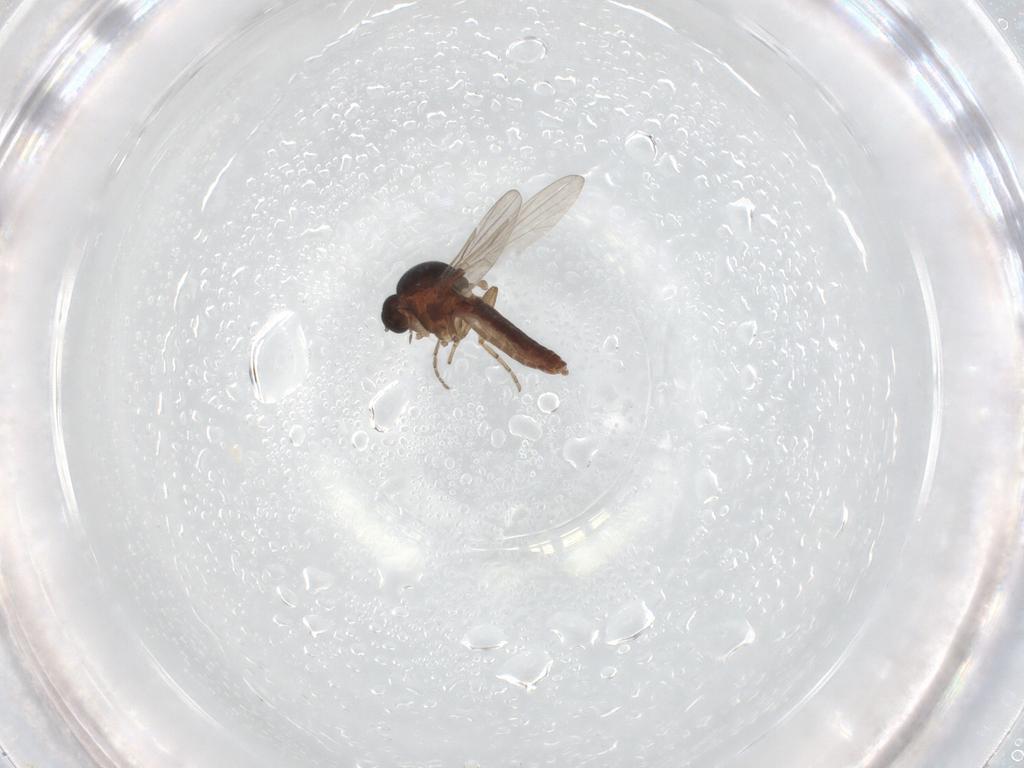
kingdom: Animalia
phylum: Arthropoda
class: Insecta
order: Diptera
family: Ceratopogonidae
